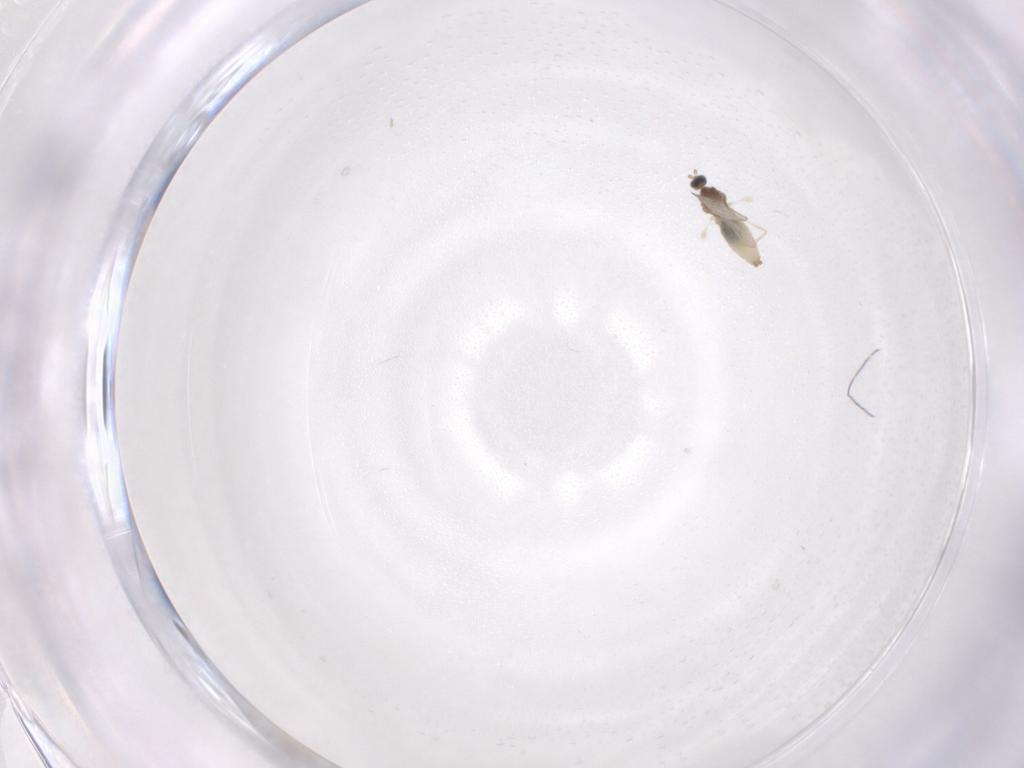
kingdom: Animalia
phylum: Arthropoda
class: Insecta
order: Diptera
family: Cecidomyiidae
